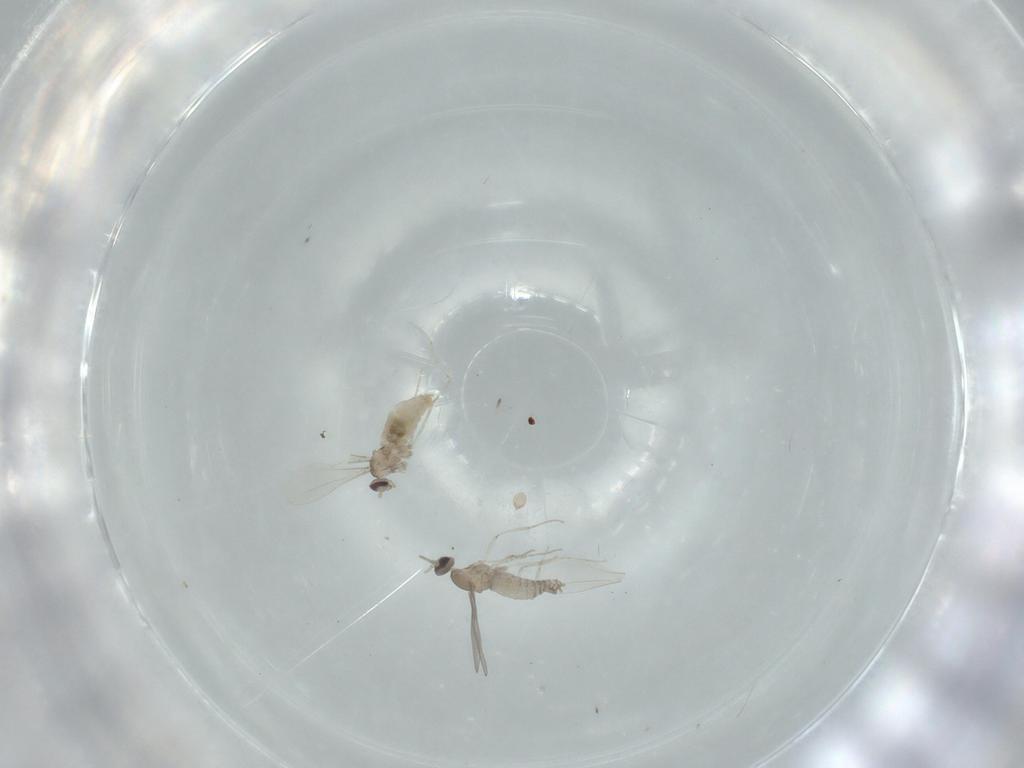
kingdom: Animalia
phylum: Arthropoda
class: Insecta
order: Diptera
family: Cecidomyiidae
